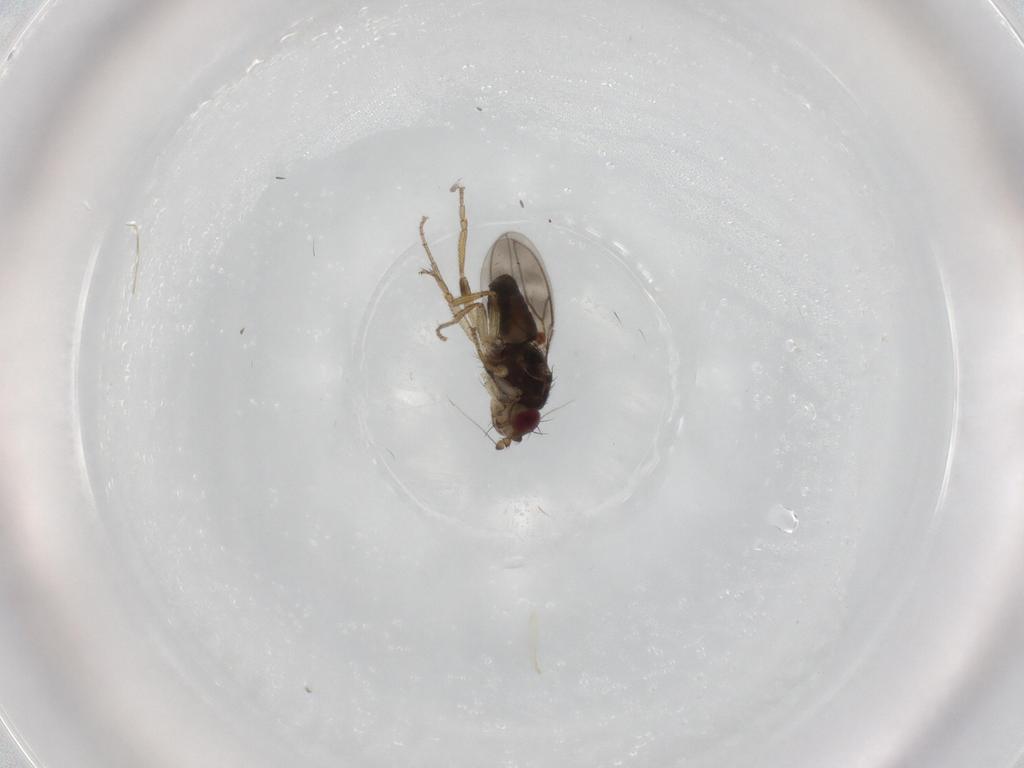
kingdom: Animalia
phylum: Arthropoda
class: Insecta
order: Diptera
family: Sphaeroceridae
